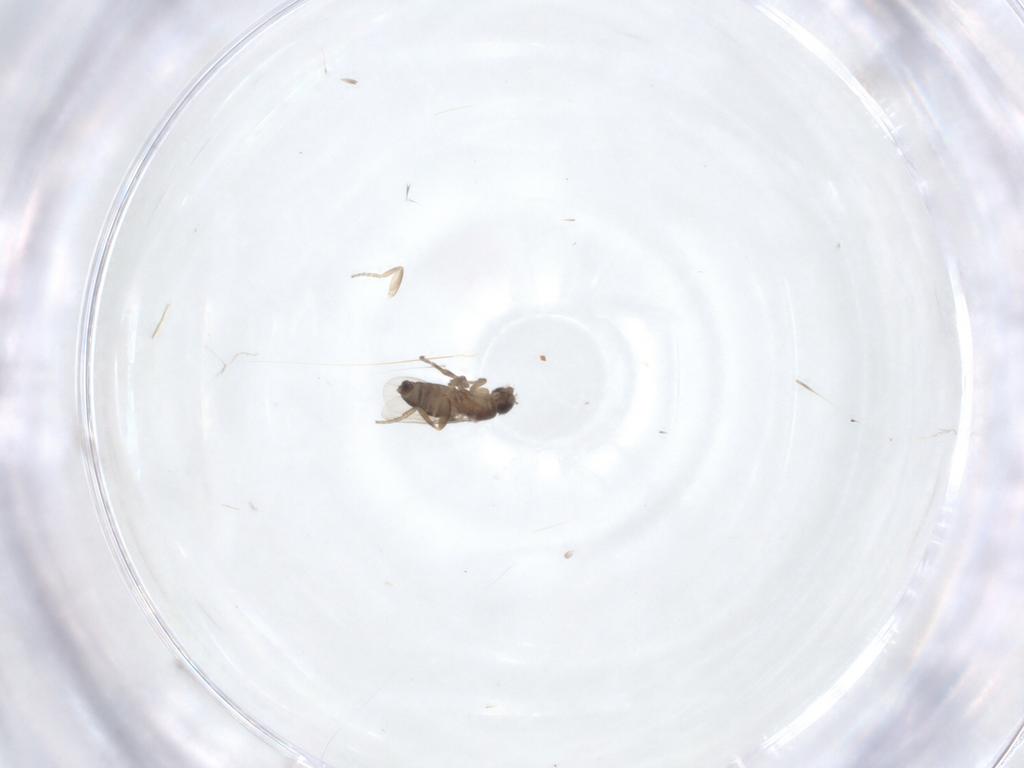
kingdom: Animalia
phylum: Arthropoda
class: Insecta
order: Diptera
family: Phoridae
